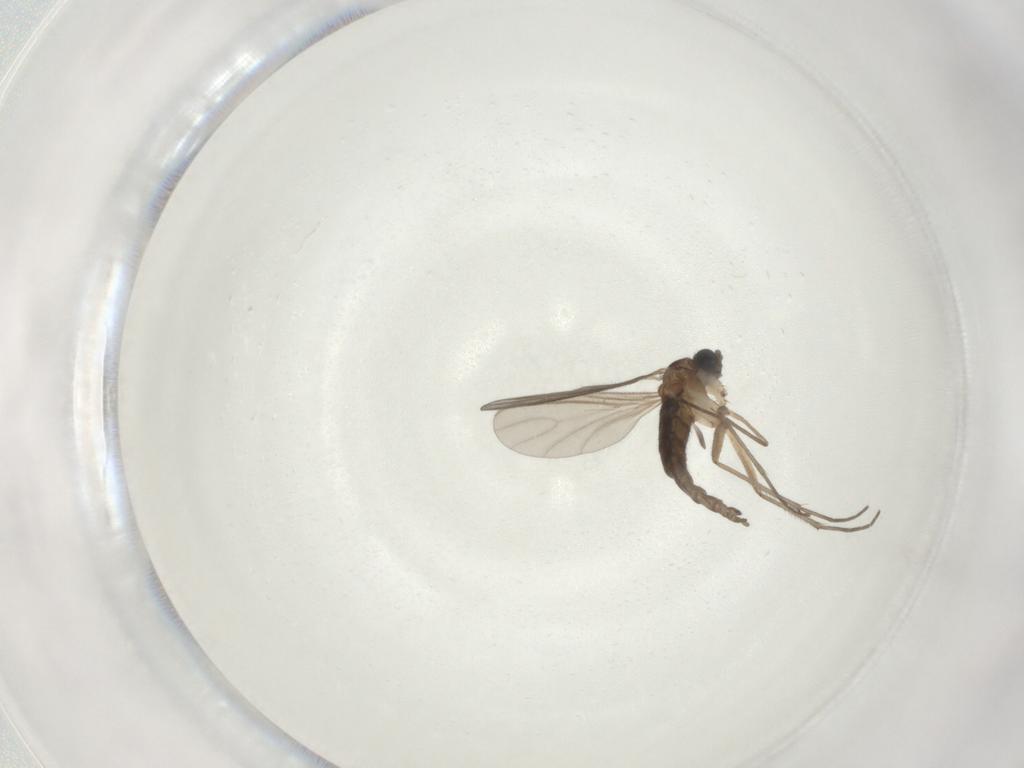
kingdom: Animalia
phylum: Arthropoda
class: Insecta
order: Diptera
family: Sciaridae
